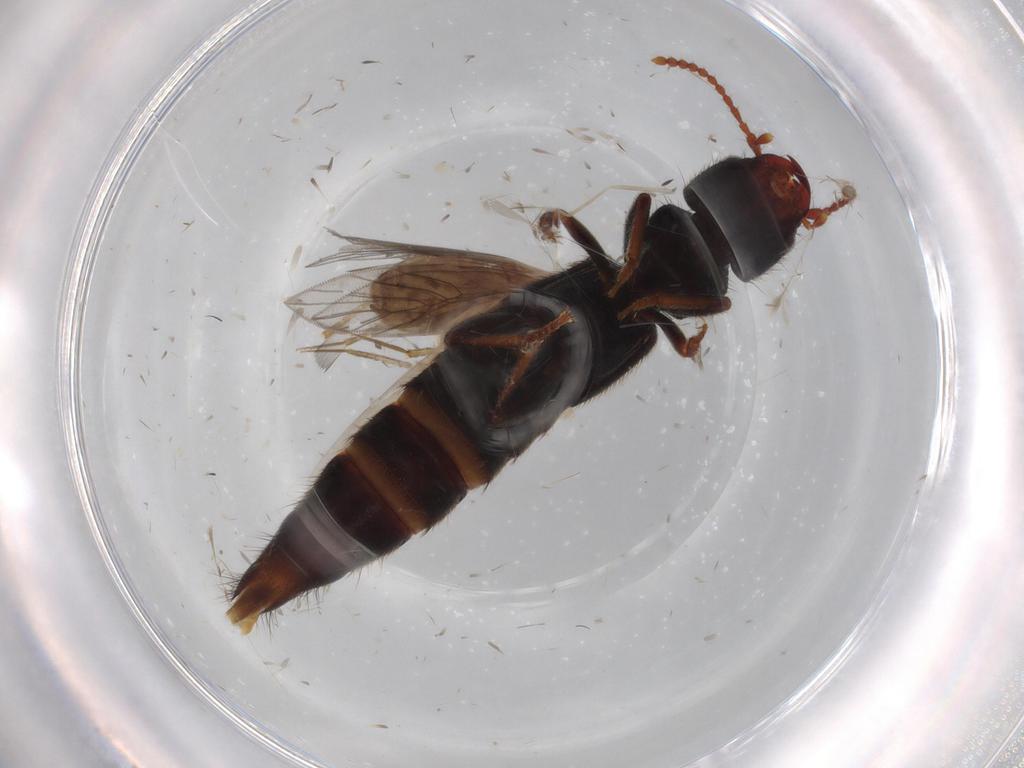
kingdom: Animalia
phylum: Arthropoda
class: Insecta
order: Psocodea
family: Lepidopsocidae
